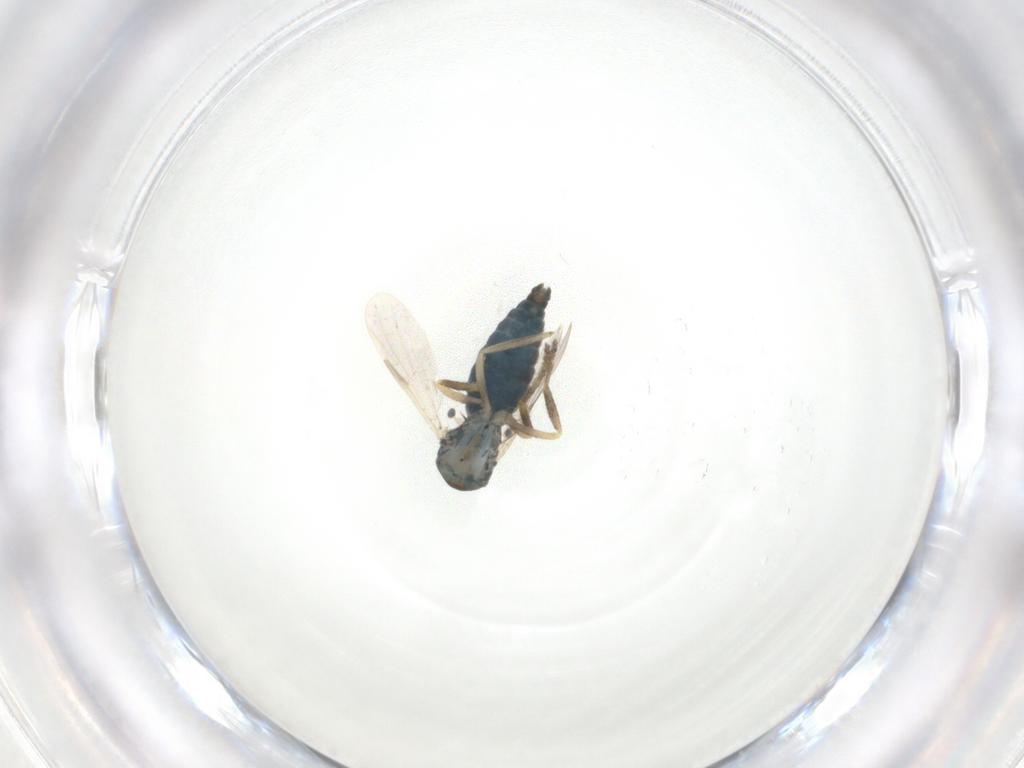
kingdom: Animalia
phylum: Arthropoda
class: Insecta
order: Diptera
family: Ceratopogonidae
